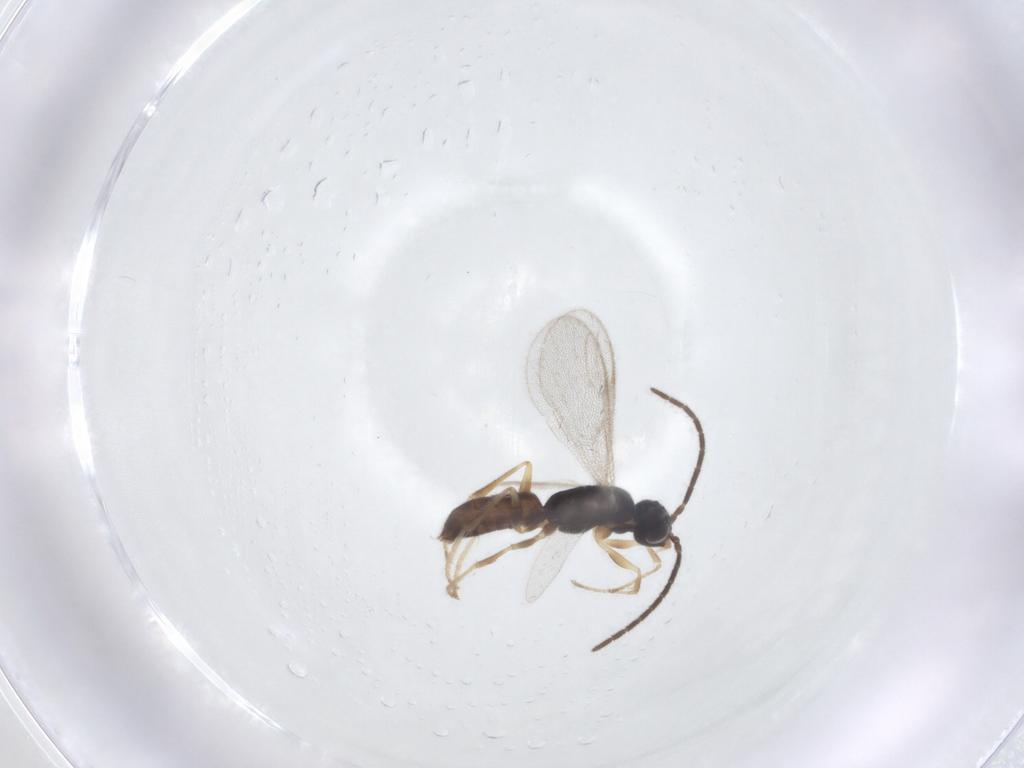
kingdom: Animalia
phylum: Arthropoda
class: Insecta
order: Hymenoptera
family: Dryinidae
